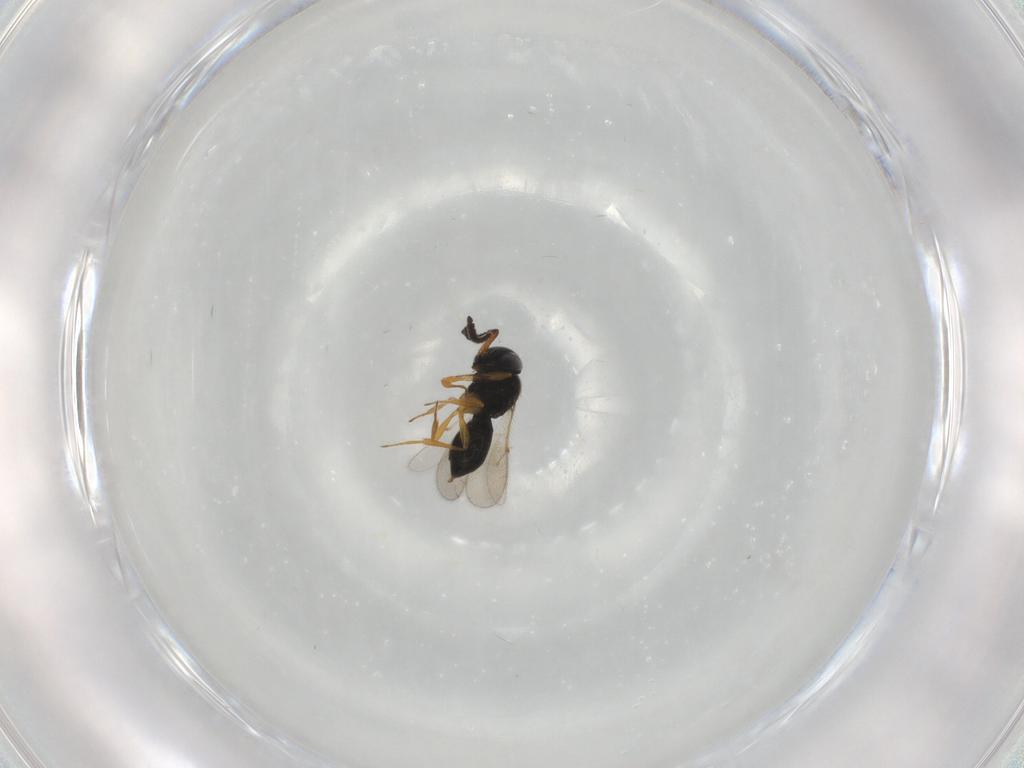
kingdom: Animalia
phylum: Arthropoda
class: Insecta
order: Hymenoptera
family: Scelionidae
